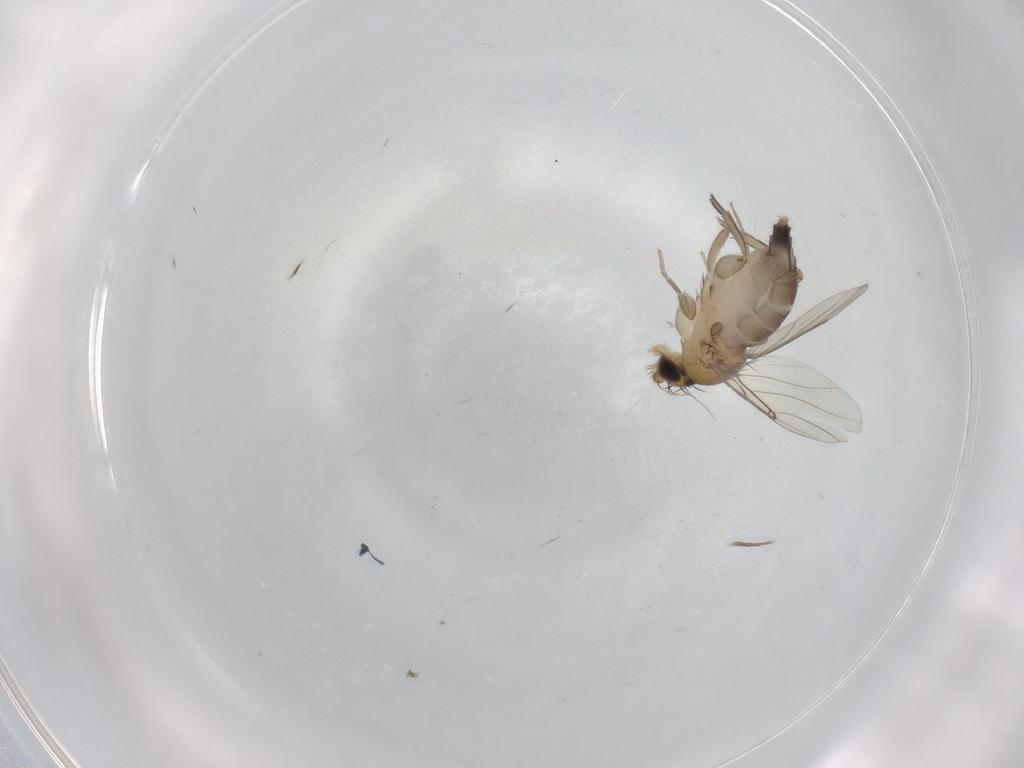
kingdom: Animalia
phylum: Arthropoda
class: Insecta
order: Diptera
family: Phoridae
